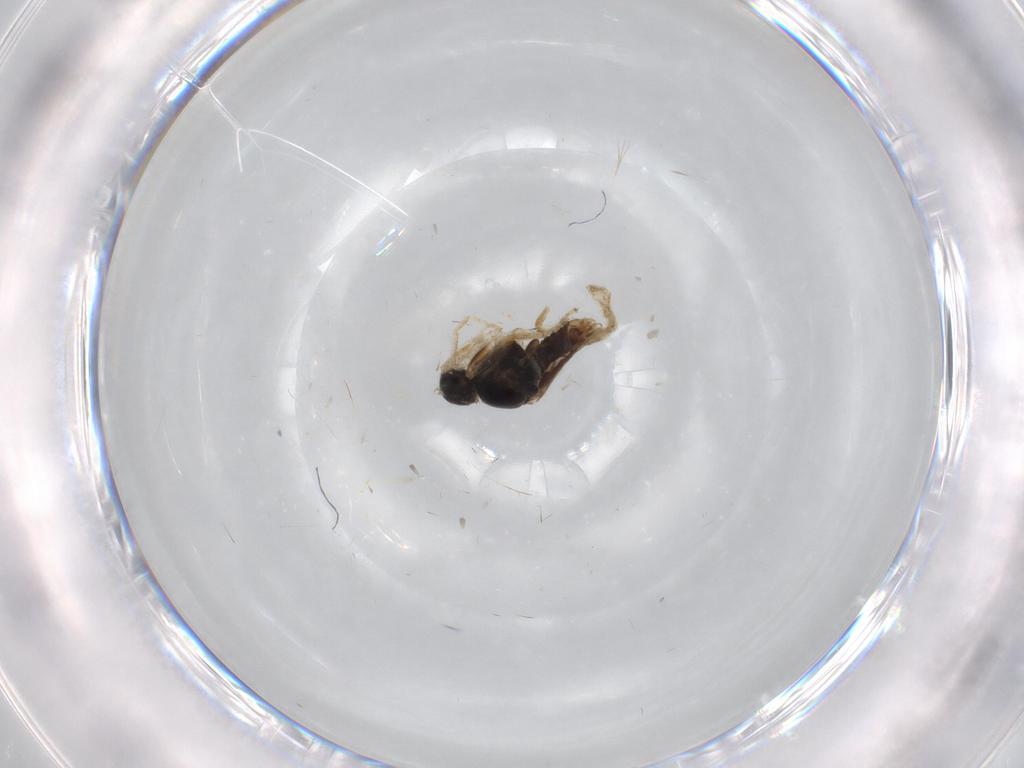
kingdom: Animalia
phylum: Arthropoda
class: Insecta
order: Diptera
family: Chironomidae
